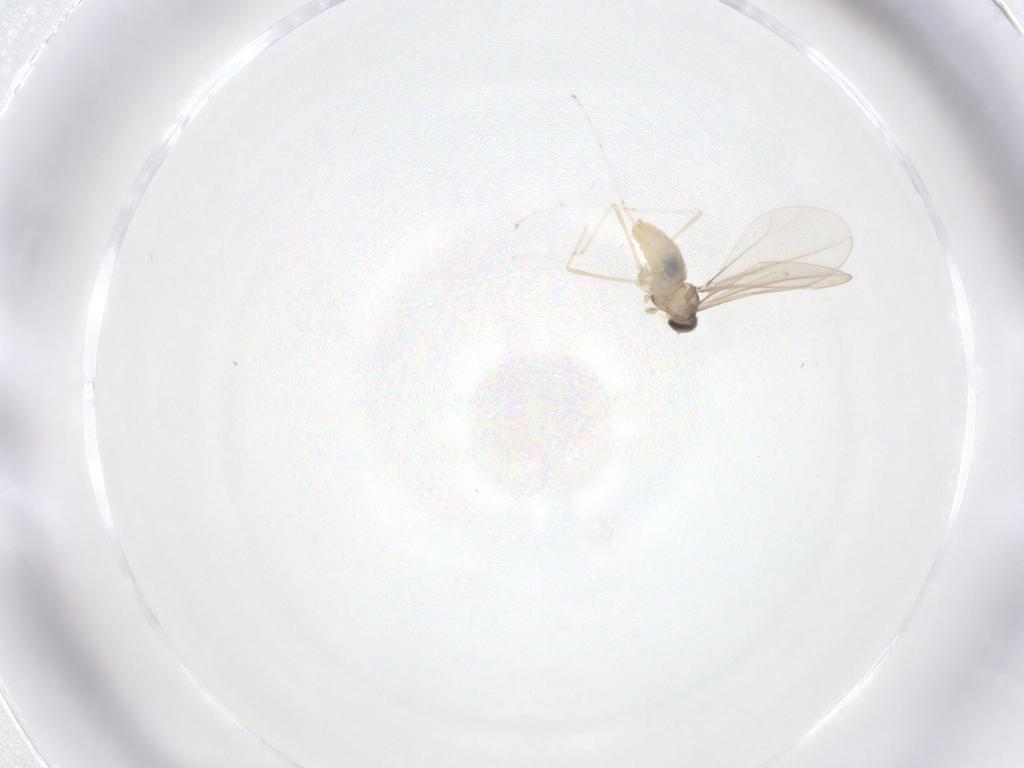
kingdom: Animalia
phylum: Arthropoda
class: Insecta
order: Diptera
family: Cecidomyiidae
